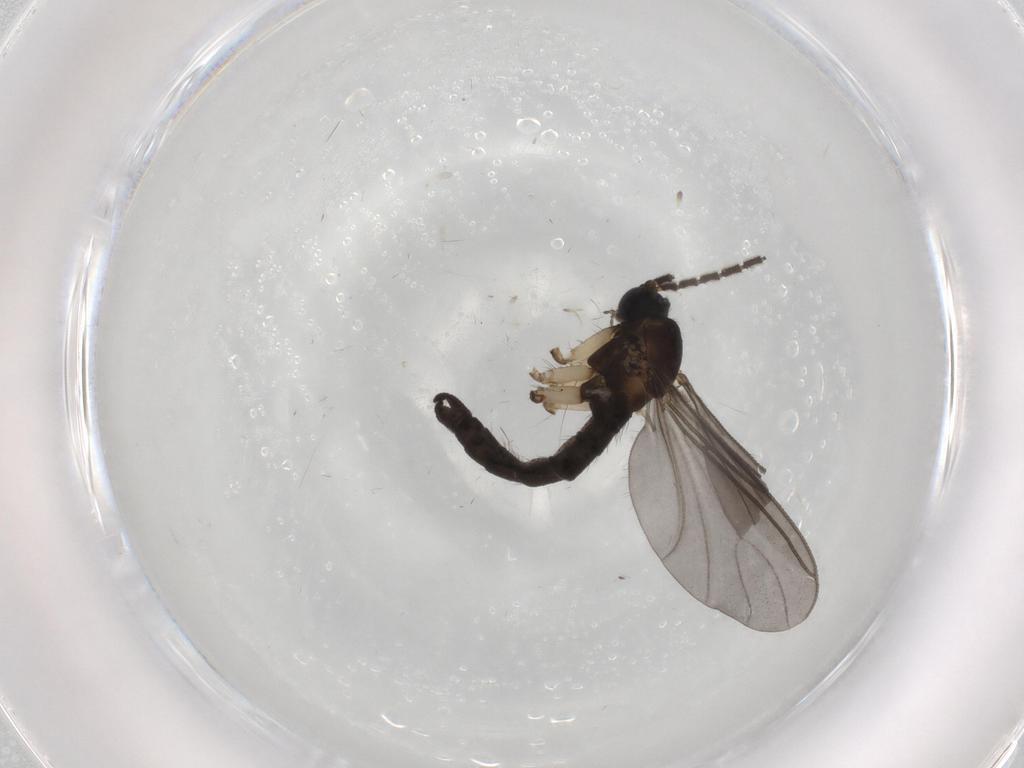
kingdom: Animalia
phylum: Arthropoda
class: Insecta
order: Diptera
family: Sciaridae
